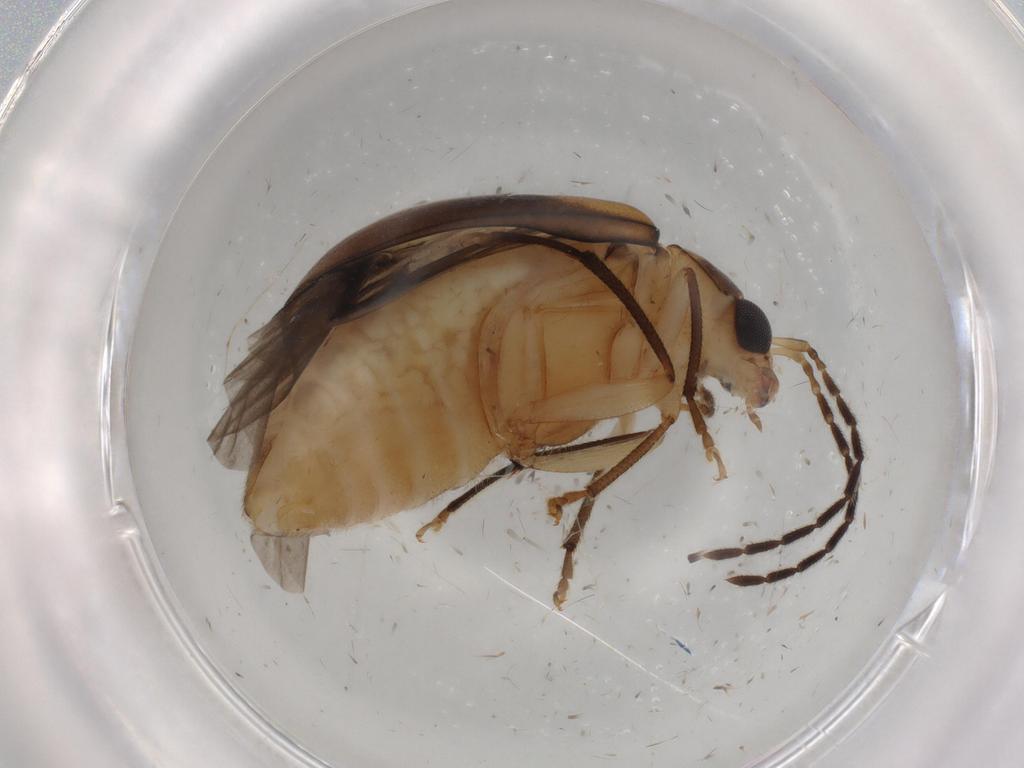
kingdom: Animalia
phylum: Arthropoda
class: Insecta
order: Coleoptera
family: Chrysomelidae
